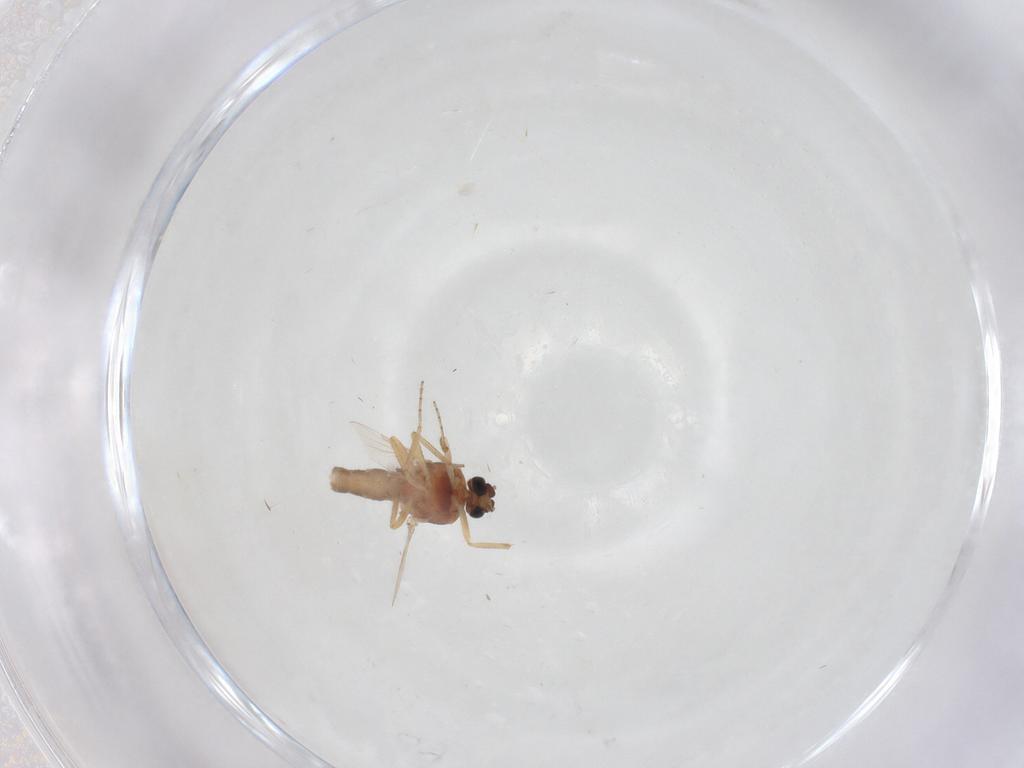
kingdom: Animalia
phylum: Arthropoda
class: Insecta
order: Diptera
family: Ceratopogonidae
